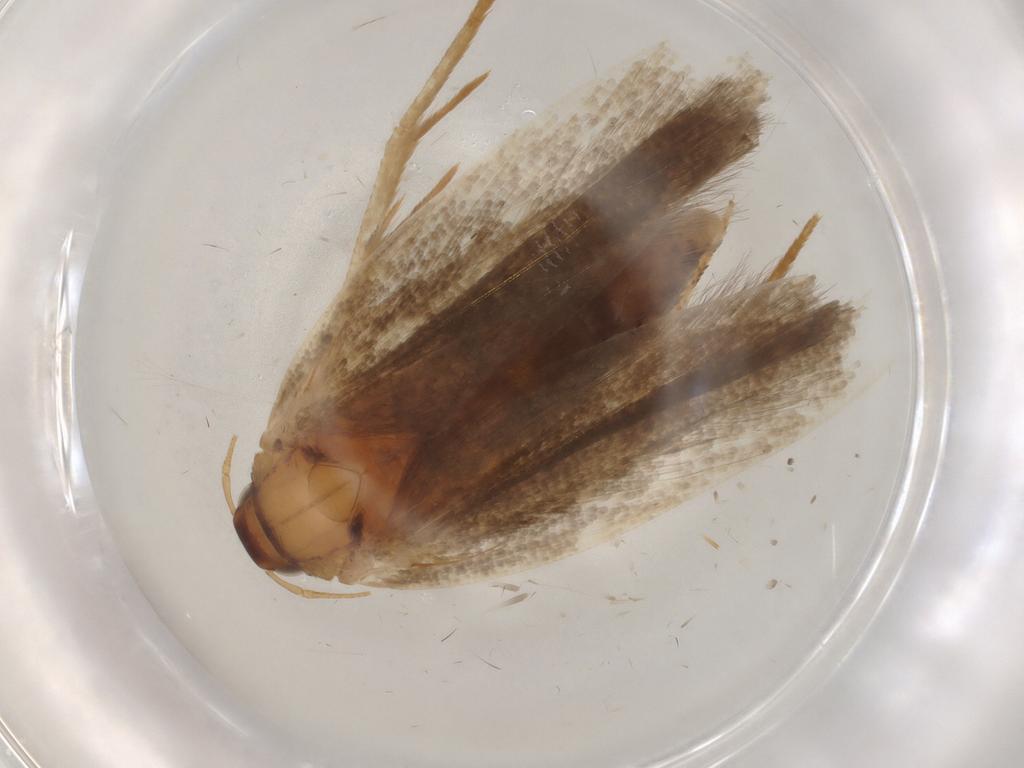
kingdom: Animalia
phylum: Arthropoda
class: Insecta
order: Lepidoptera
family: Gelechiidae
